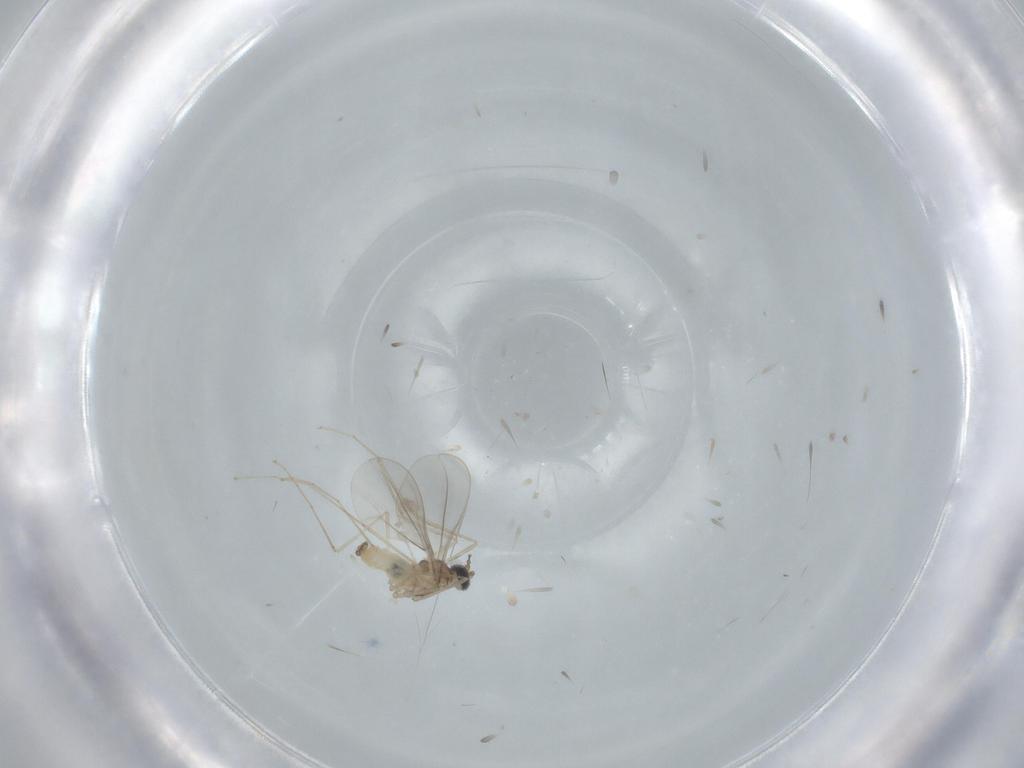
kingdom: Animalia
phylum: Arthropoda
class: Insecta
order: Diptera
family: Cecidomyiidae
